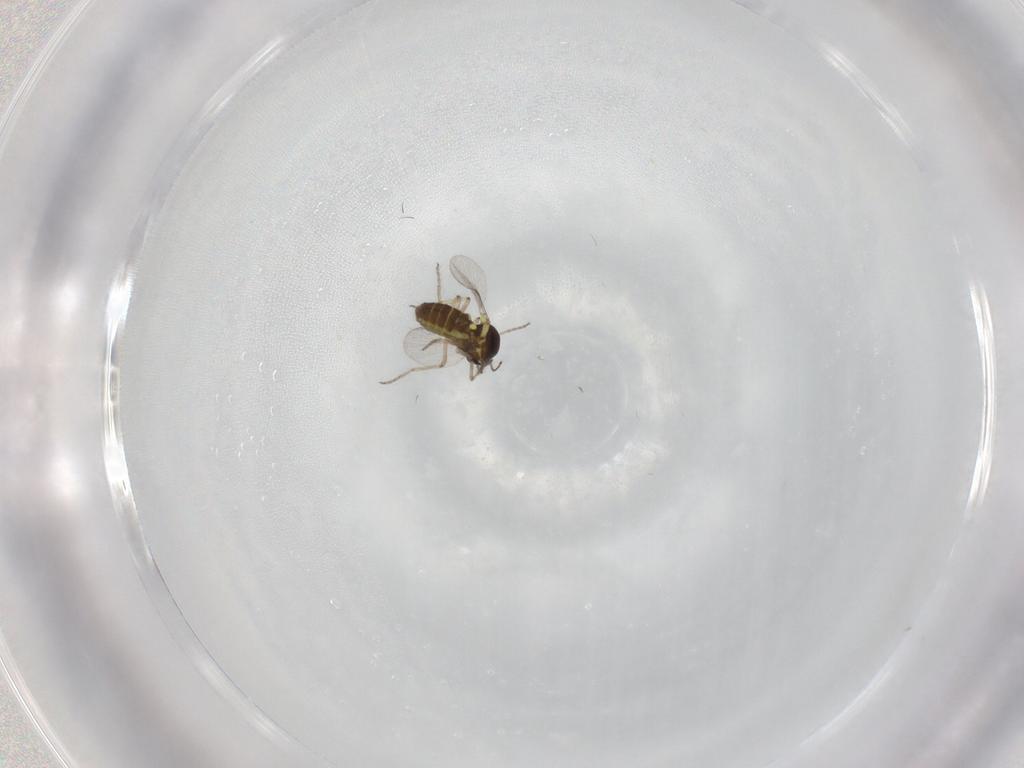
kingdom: Animalia
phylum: Arthropoda
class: Insecta
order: Diptera
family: Ceratopogonidae
